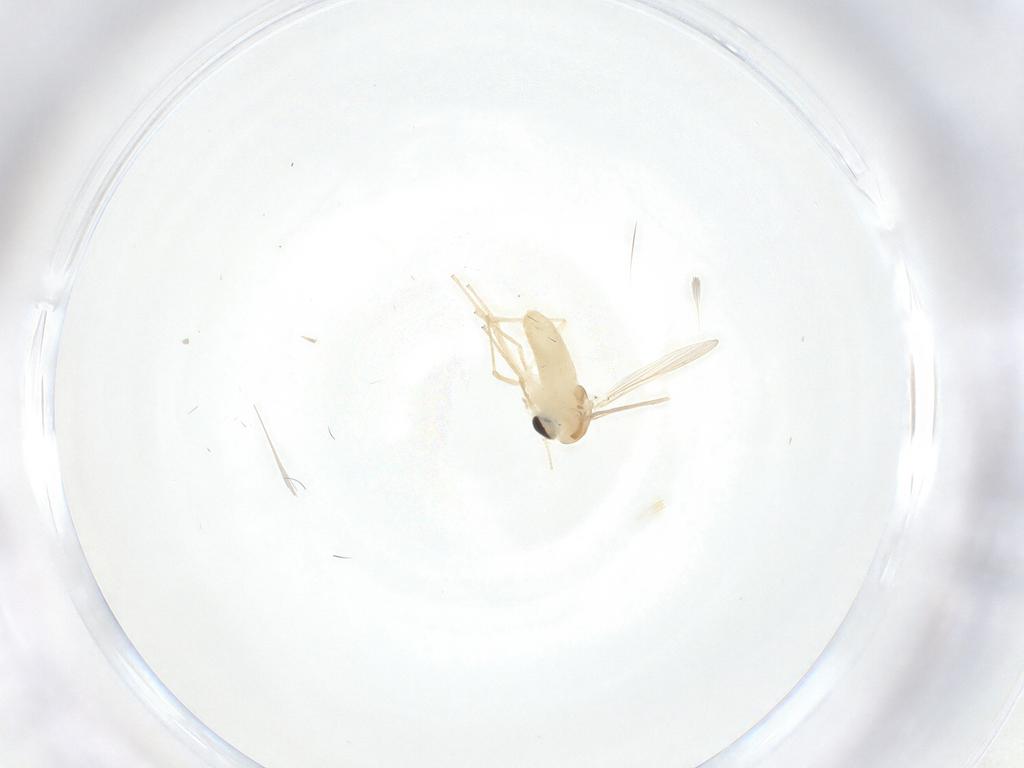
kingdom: Animalia
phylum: Arthropoda
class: Insecta
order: Diptera
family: Chironomidae
